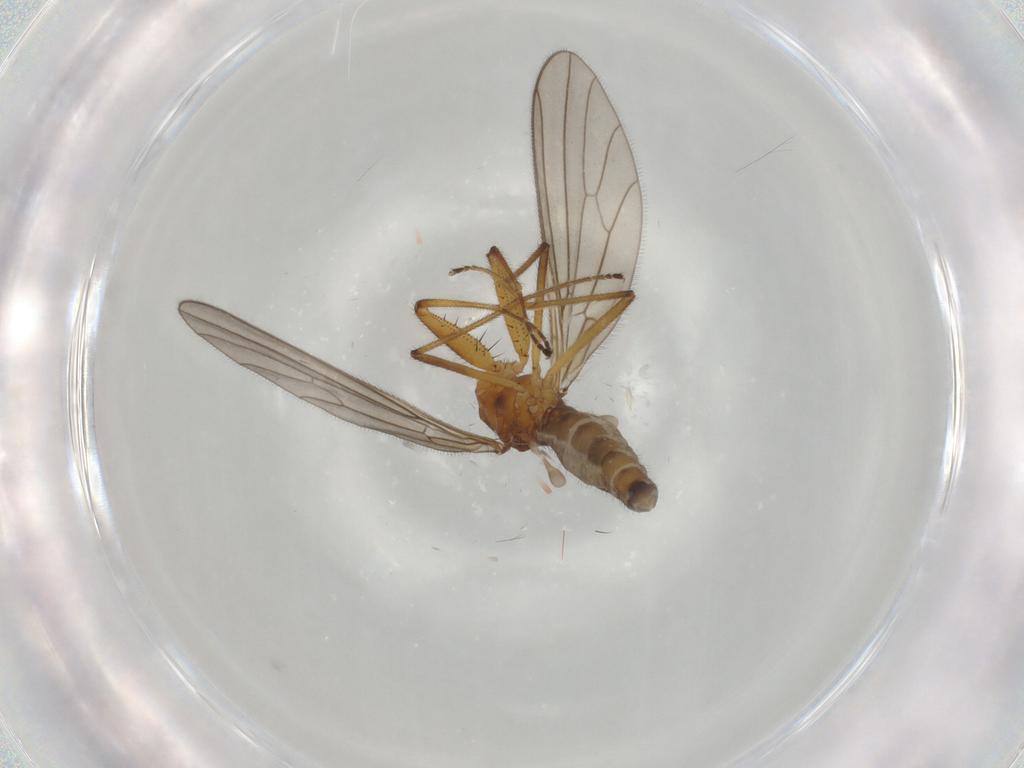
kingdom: Animalia
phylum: Arthropoda
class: Insecta
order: Diptera
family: Empididae
